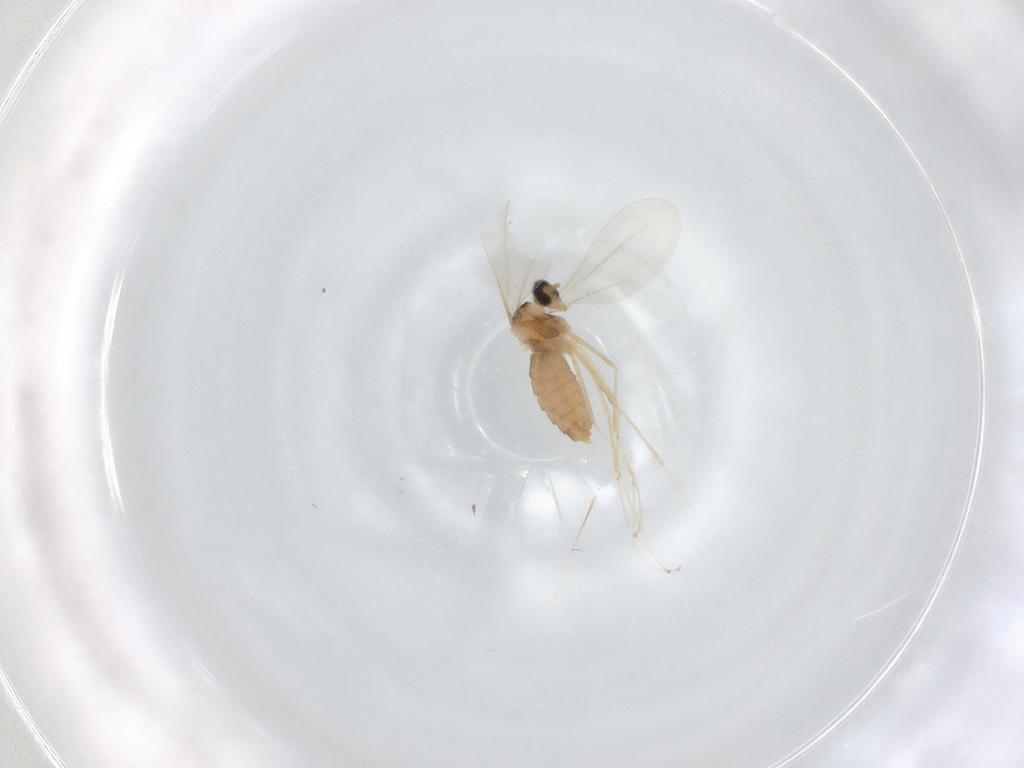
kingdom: Animalia
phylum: Arthropoda
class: Insecta
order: Diptera
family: Cecidomyiidae
